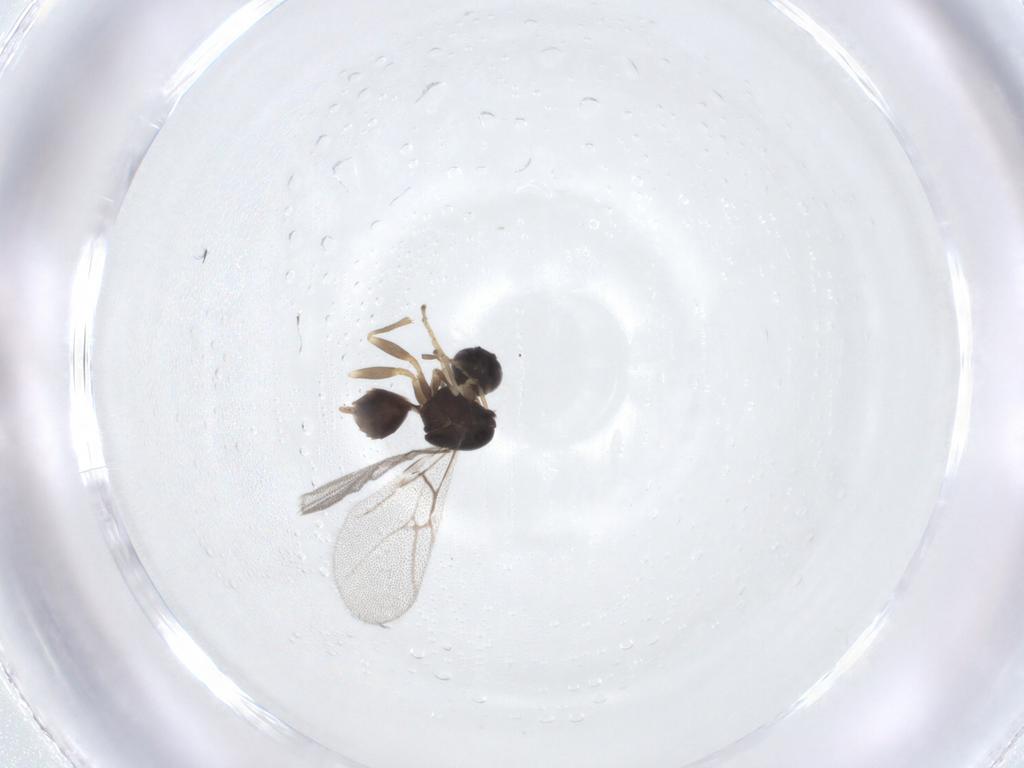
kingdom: Animalia
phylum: Arthropoda
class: Insecta
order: Hymenoptera
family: Cynipidae
